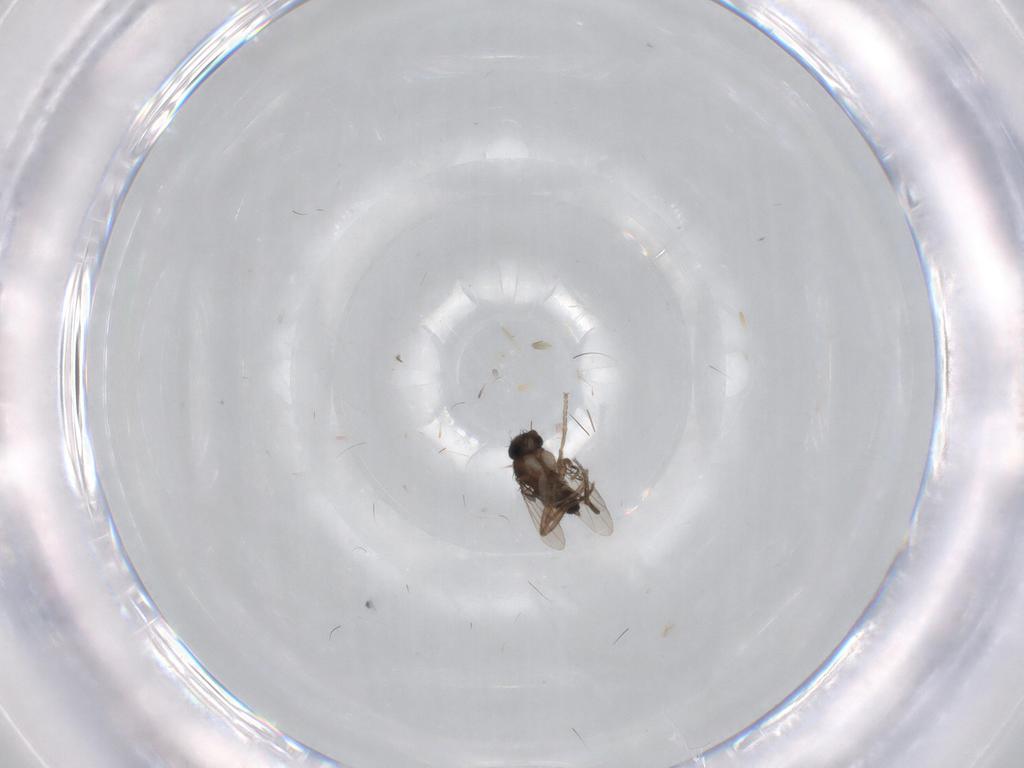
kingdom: Animalia
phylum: Arthropoda
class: Insecta
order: Diptera
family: Phoridae
